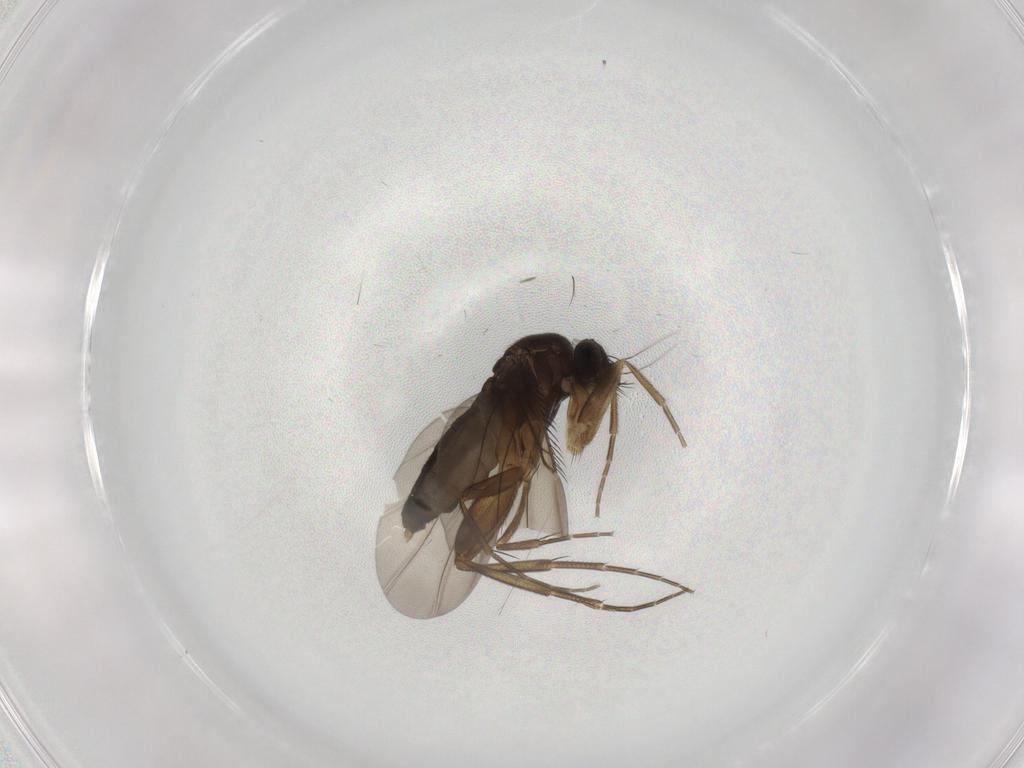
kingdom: Animalia
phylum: Arthropoda
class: Insecta
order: Diptera
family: Phoridae
